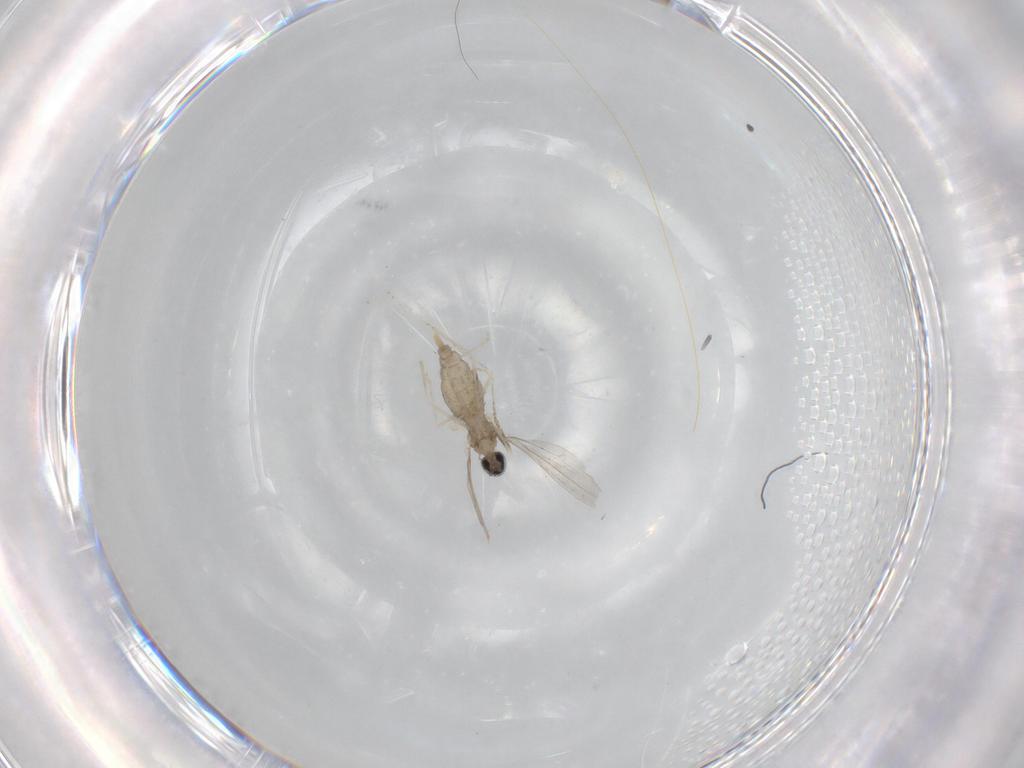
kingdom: Animalia
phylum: Arthropoda
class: Insecta
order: Diptera
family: Cecidomyiidae
